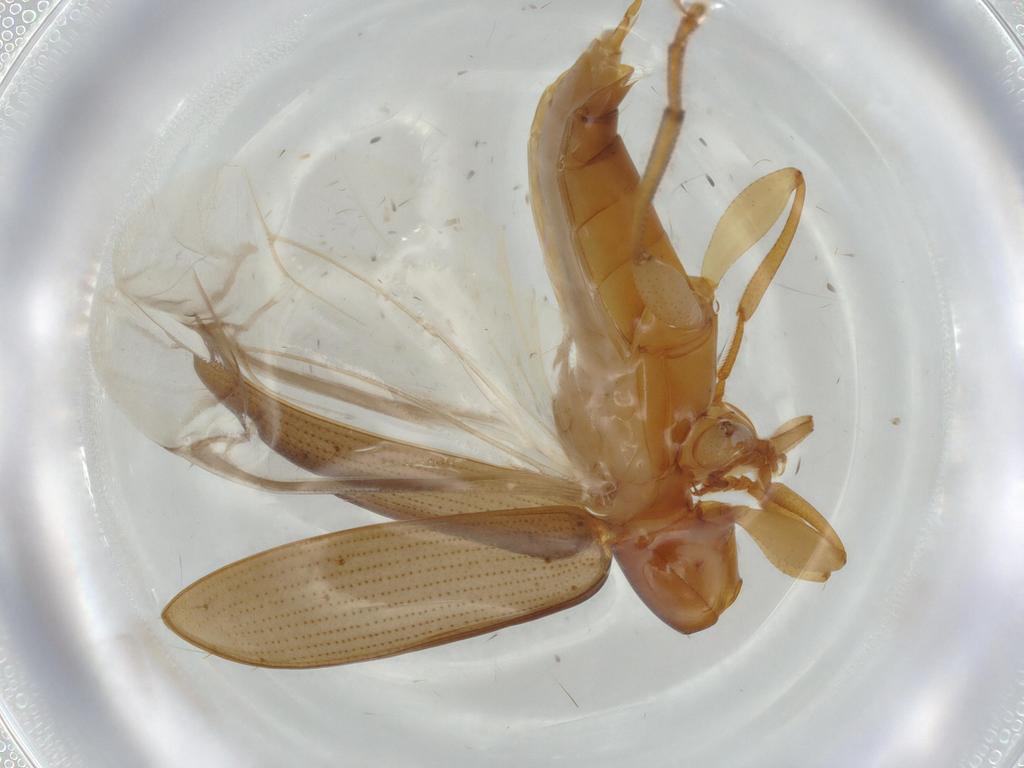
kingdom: Animalia
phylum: Arthropoda
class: Insecta
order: Coleoptera
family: Tenebrionidae
